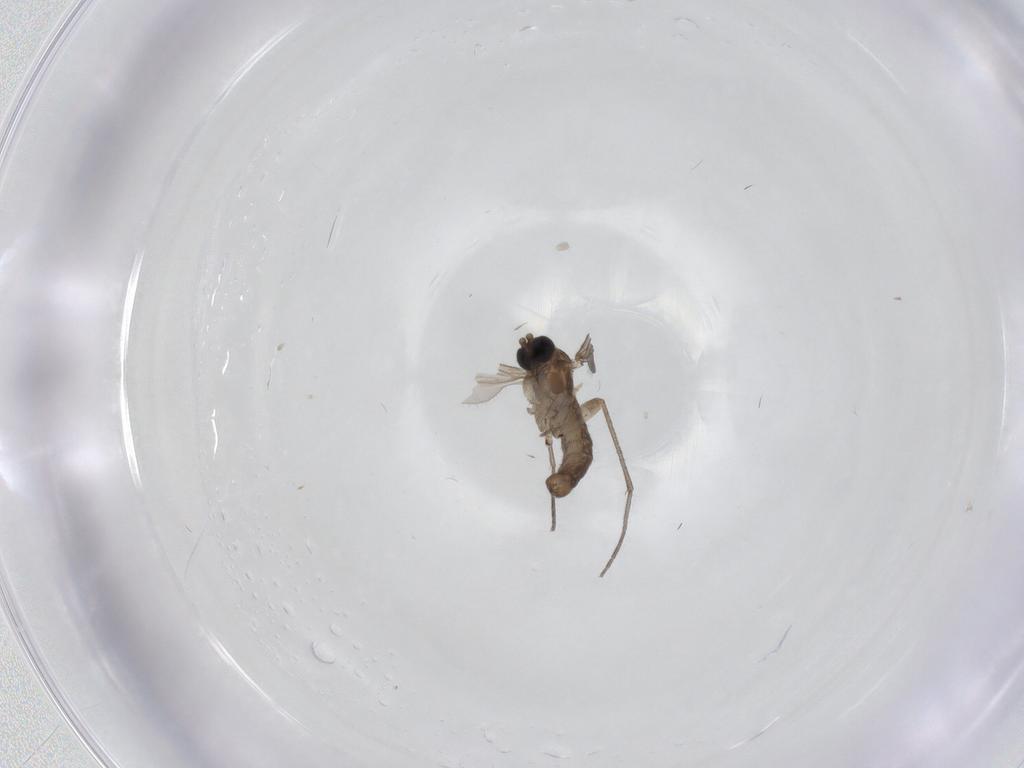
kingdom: Animalia
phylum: Arthropoda
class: Insecta
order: Diptera
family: Psychodidae
